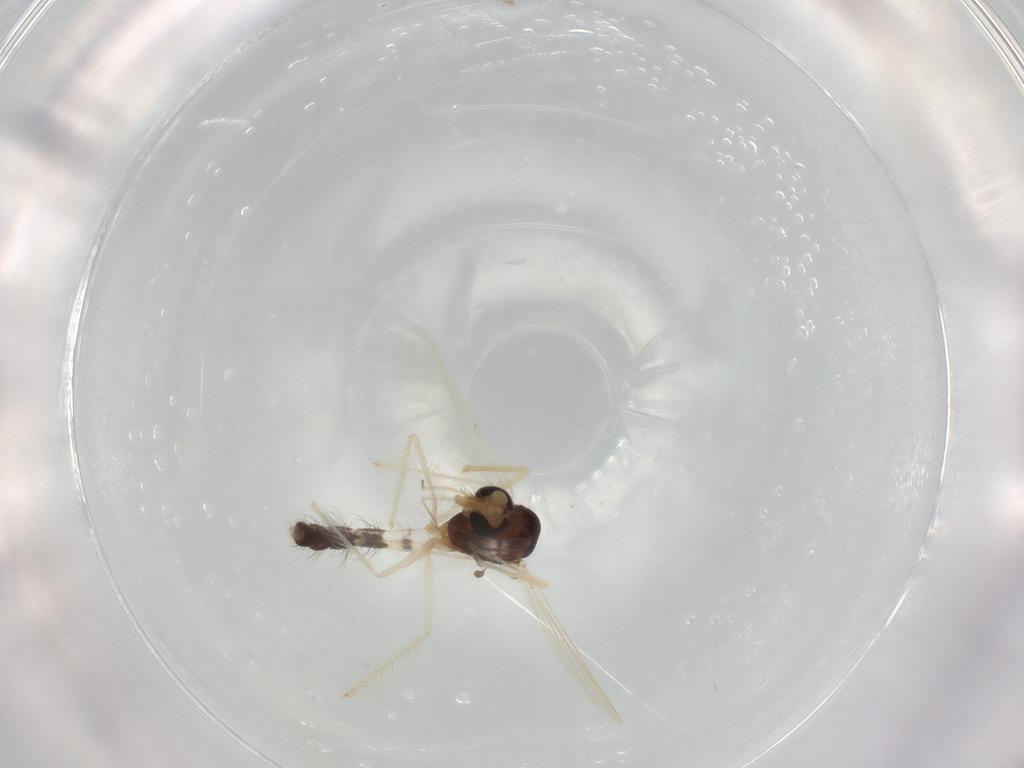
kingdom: Animalia
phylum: Arthropoda
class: Insecta
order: Diptera
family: Chironomidae
